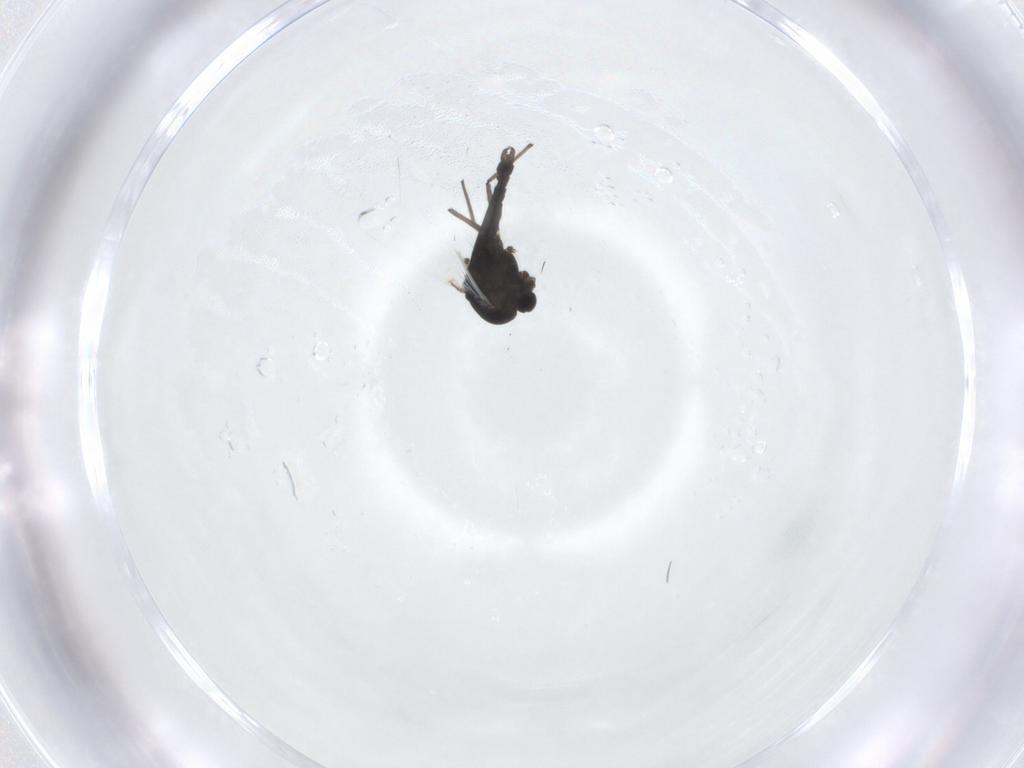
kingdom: Animalia
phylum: Arthropoda
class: Insecta
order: Diptera
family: Chironomidae
